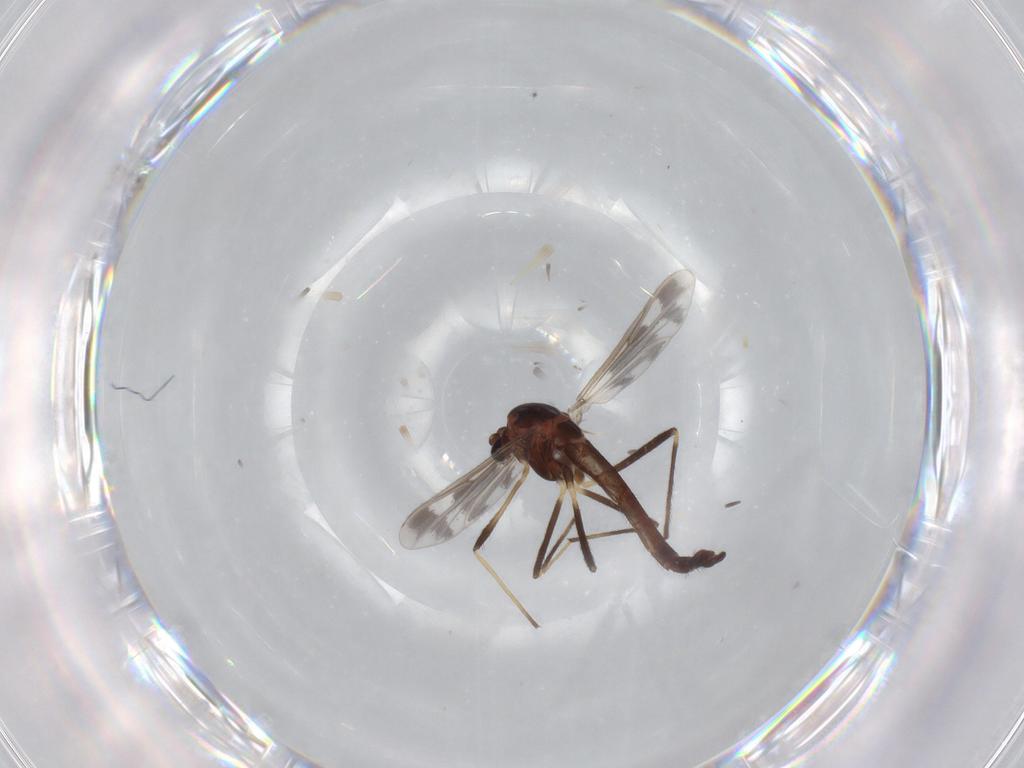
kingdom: Animalia
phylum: Arthropoda
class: Insecta
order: Diptera
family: Chironomidae
